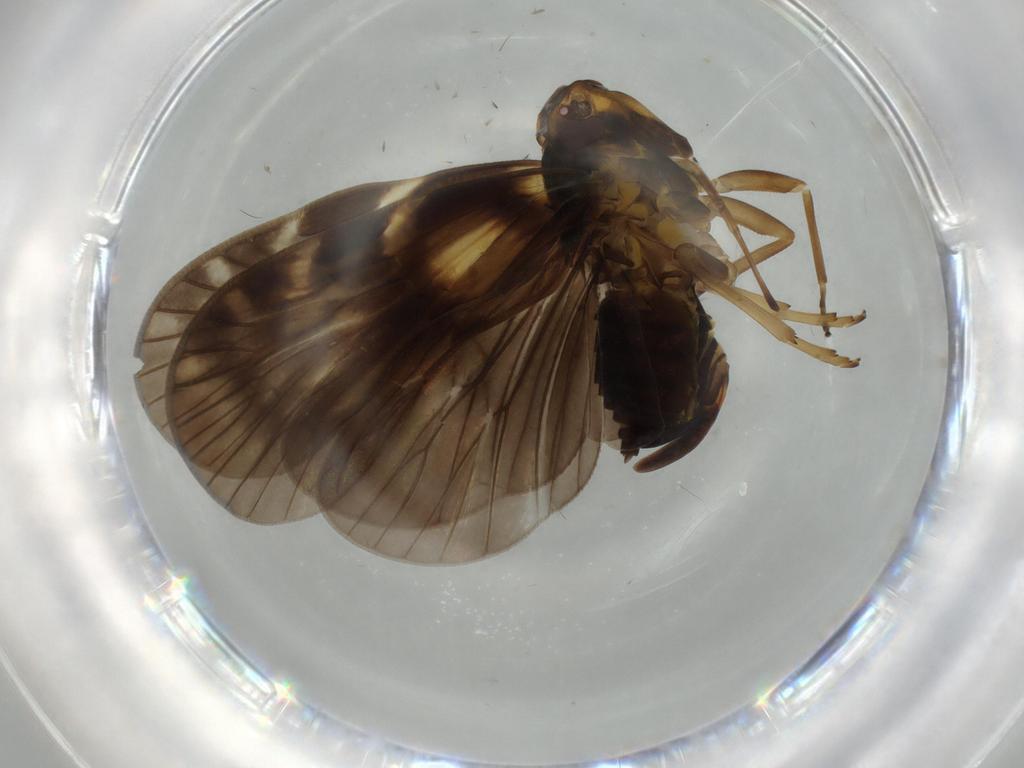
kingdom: Animalia
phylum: Arthropoda
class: Insecta
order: Hemiptera
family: Cixiidae
